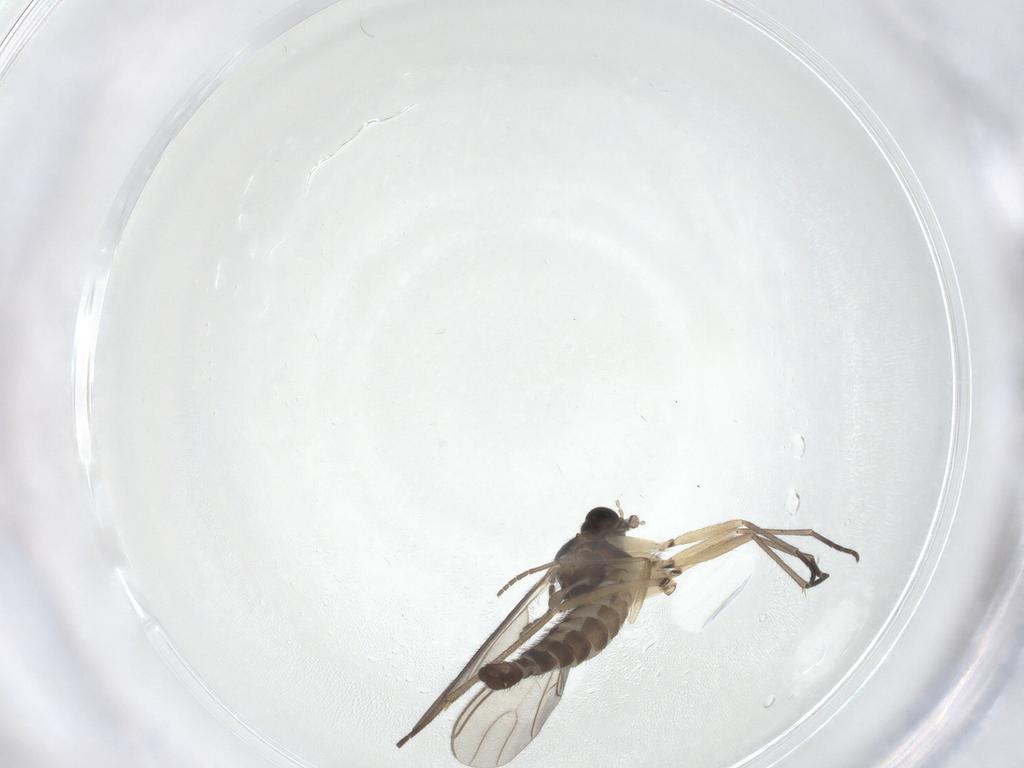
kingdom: Animalia
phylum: Arthropoda
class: Insecta
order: Diptera
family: Sciaridae
